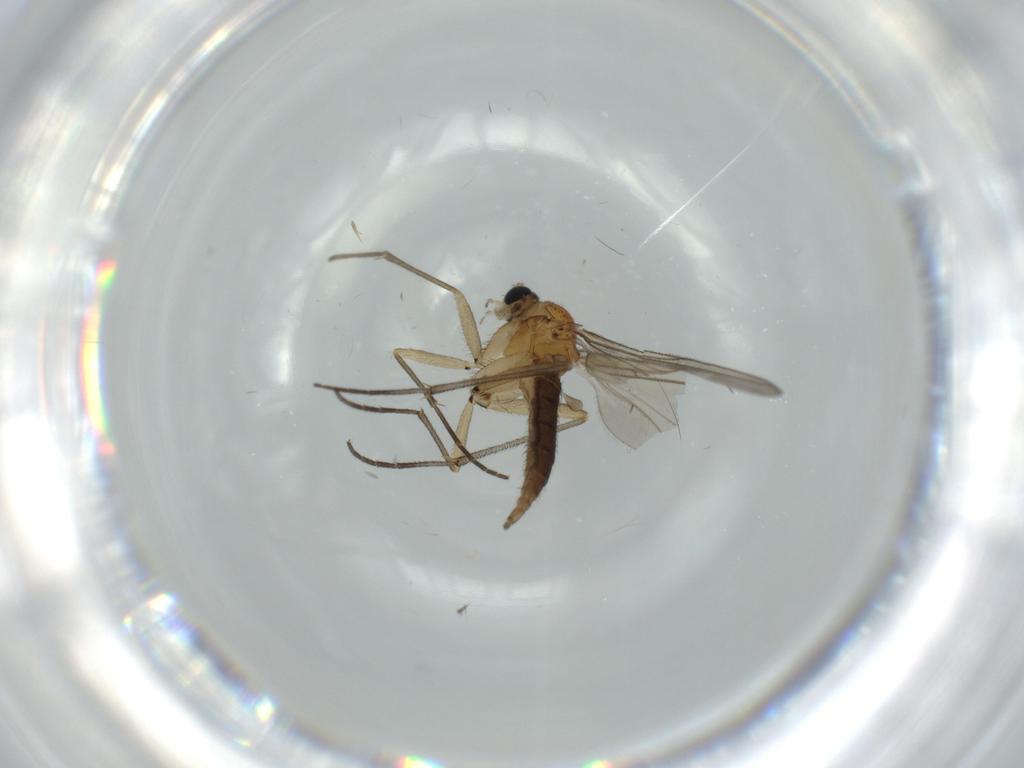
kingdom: Animalia
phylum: Arthropoda
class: Insecta
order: Diptera
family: Sciaridae
